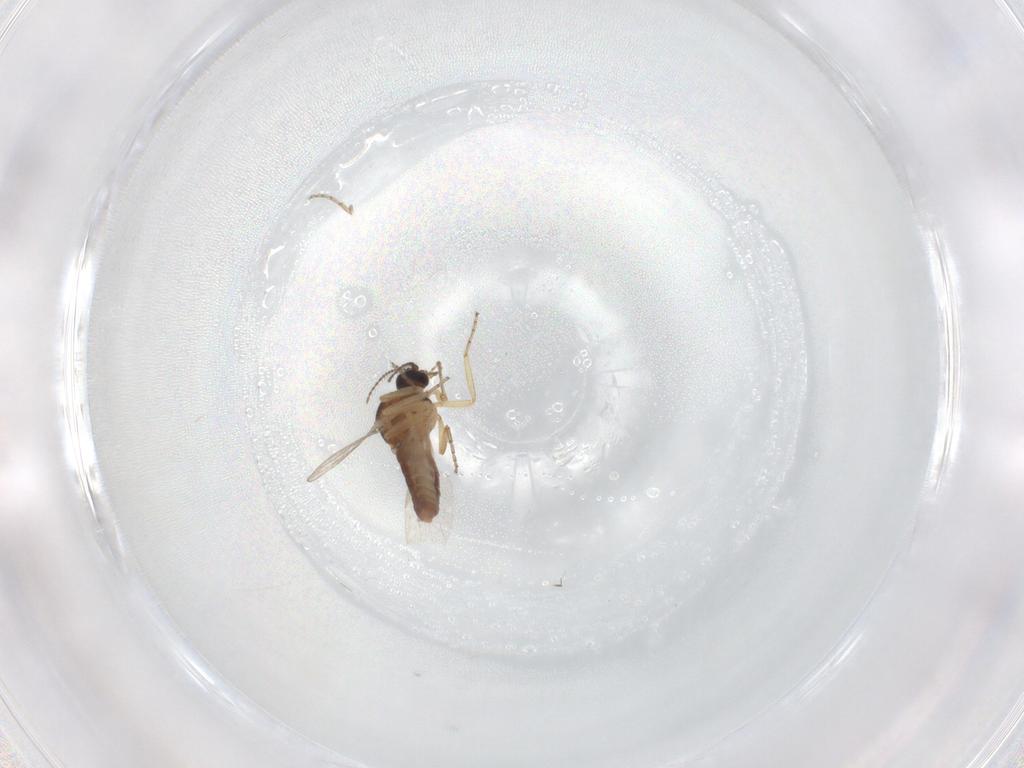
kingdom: Animalia
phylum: Arthropoda
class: Insecta
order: Diptera
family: Ceratopogonidae
